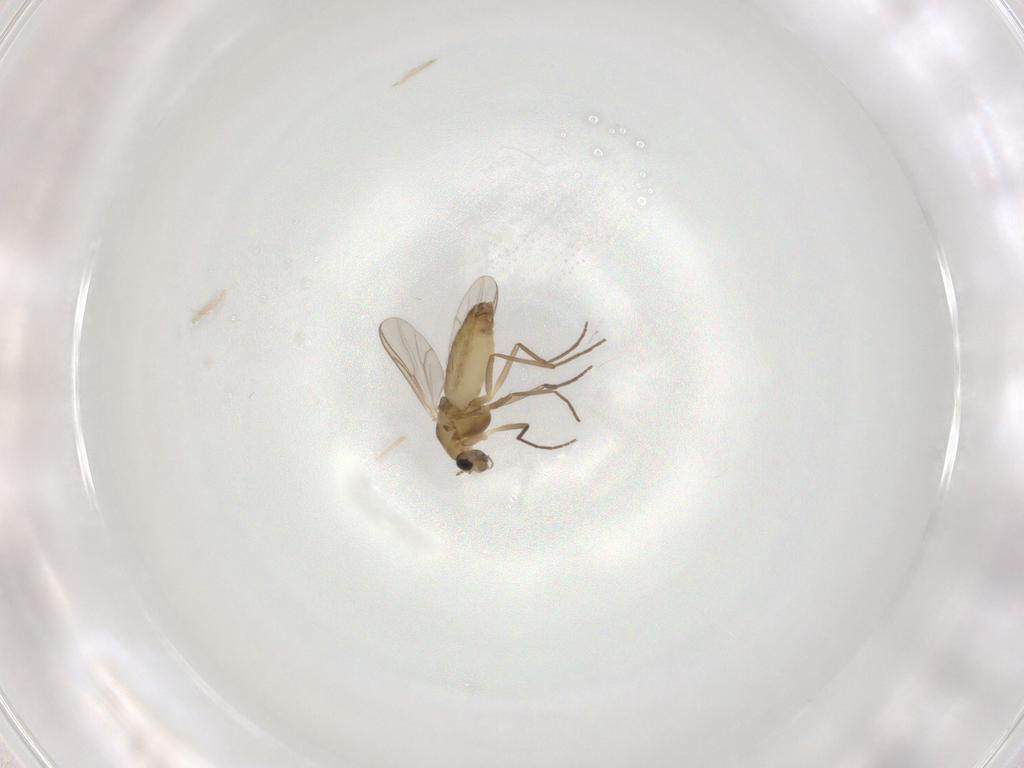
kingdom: Animalia
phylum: Arthropoda
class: Insecta
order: Diptera
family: Chironomidae
